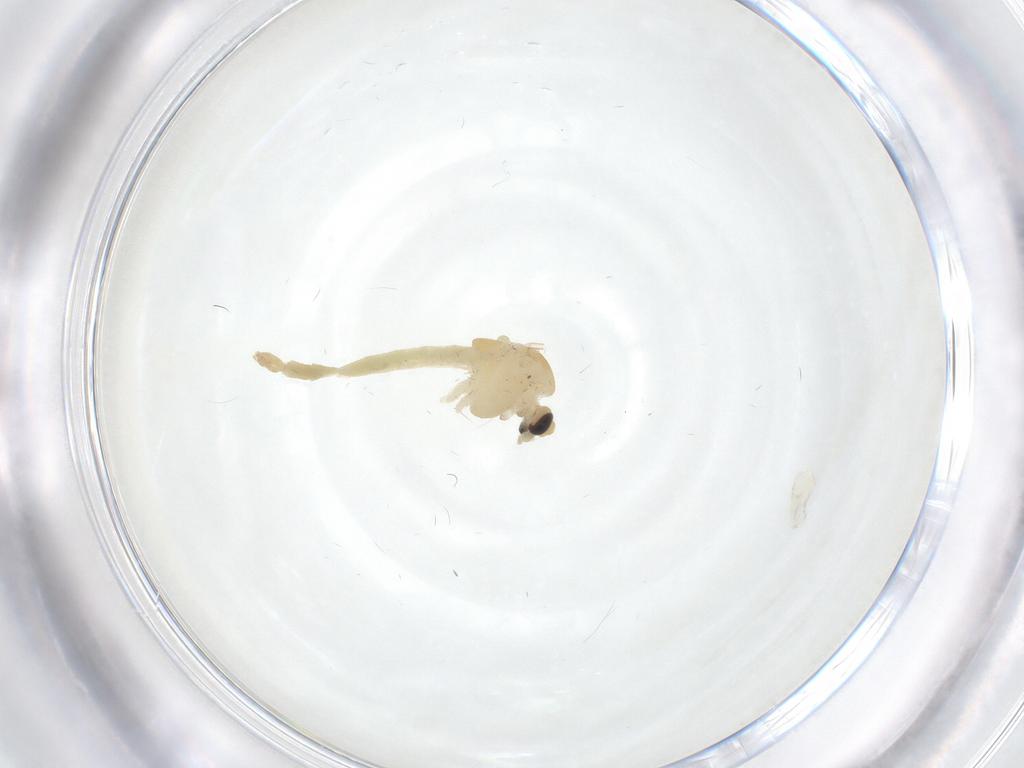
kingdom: Animalia
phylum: Arthropoda
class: Insecta
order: Diptera
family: Chironomidae
